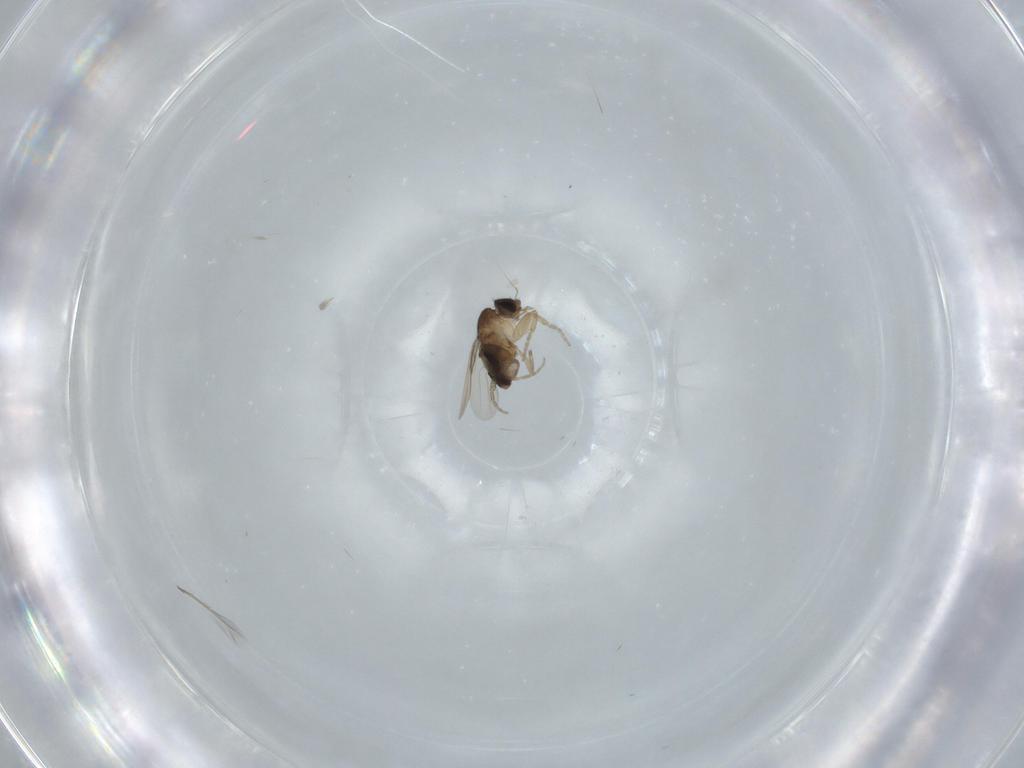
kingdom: Animalia
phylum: Arthropoda
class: Insecta
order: Diptera
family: Phoridae
